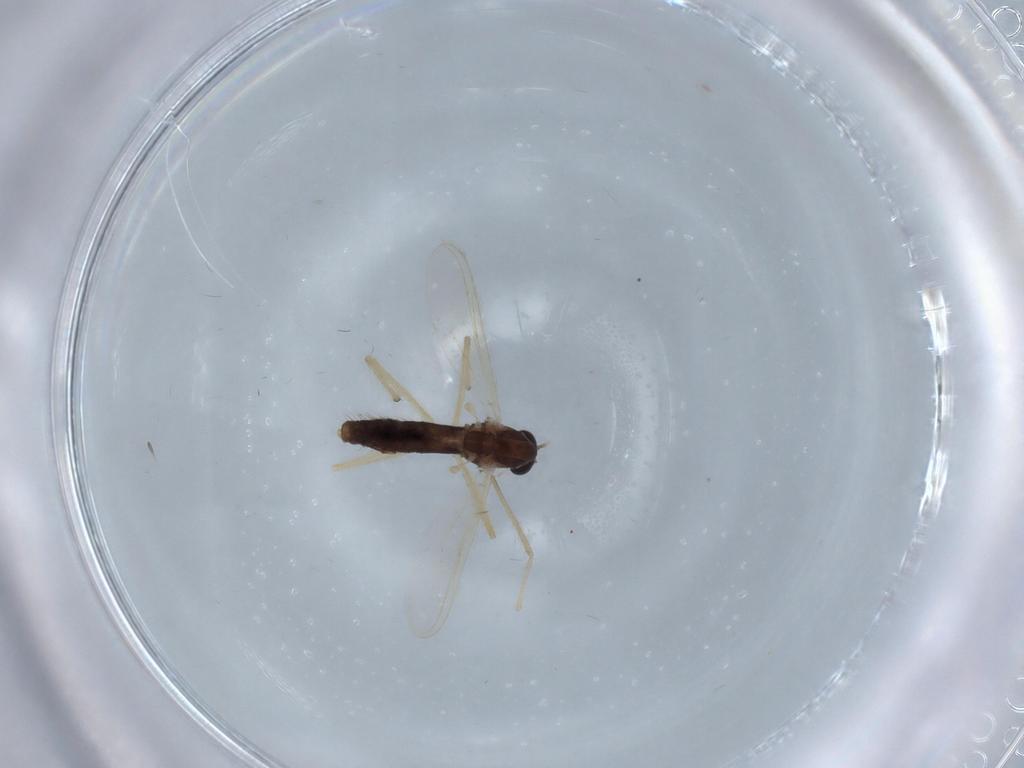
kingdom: Animalia
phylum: Arthropoda
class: Insecta
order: Diptera
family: Chironomidae
